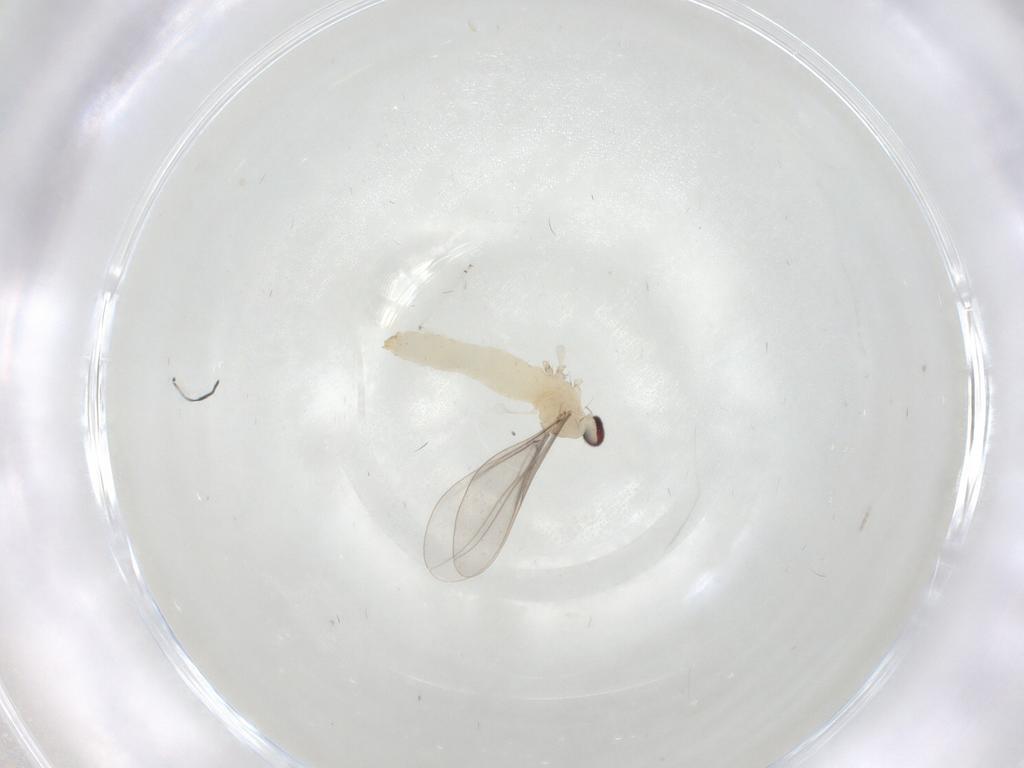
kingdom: Animalia
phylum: Arthropoda
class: Insecta
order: Diptera
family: Cecidomyiidae
